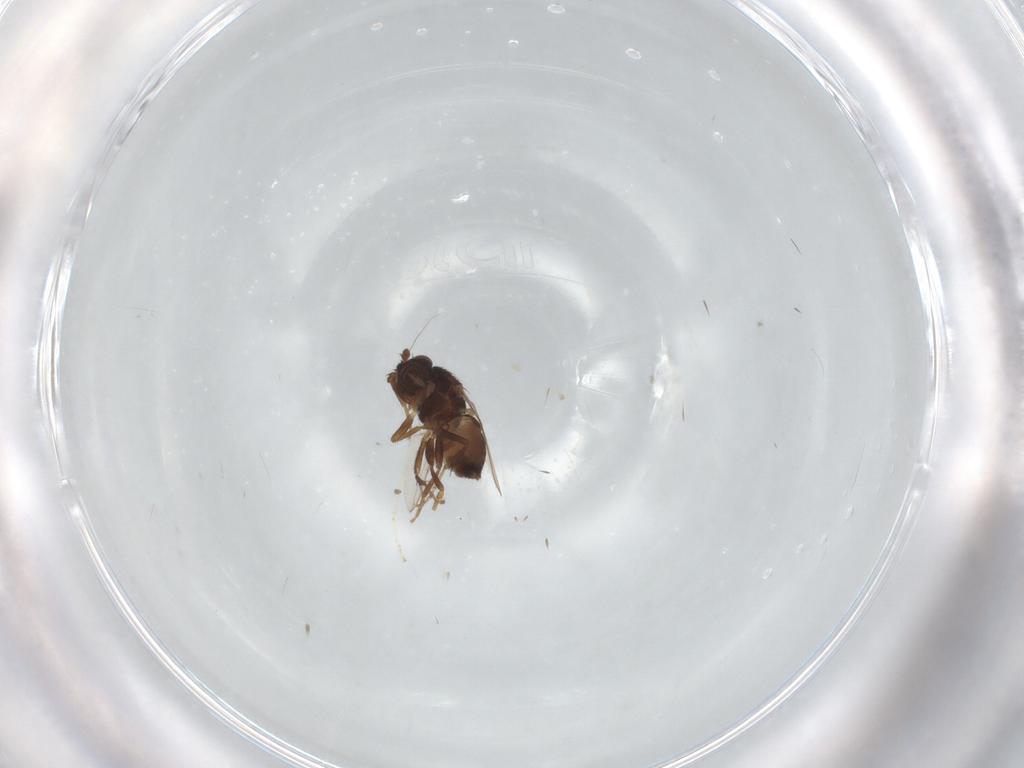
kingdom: Animalia
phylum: Arthropoda
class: Insecta
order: Diptera
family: Sphaeroceridae
